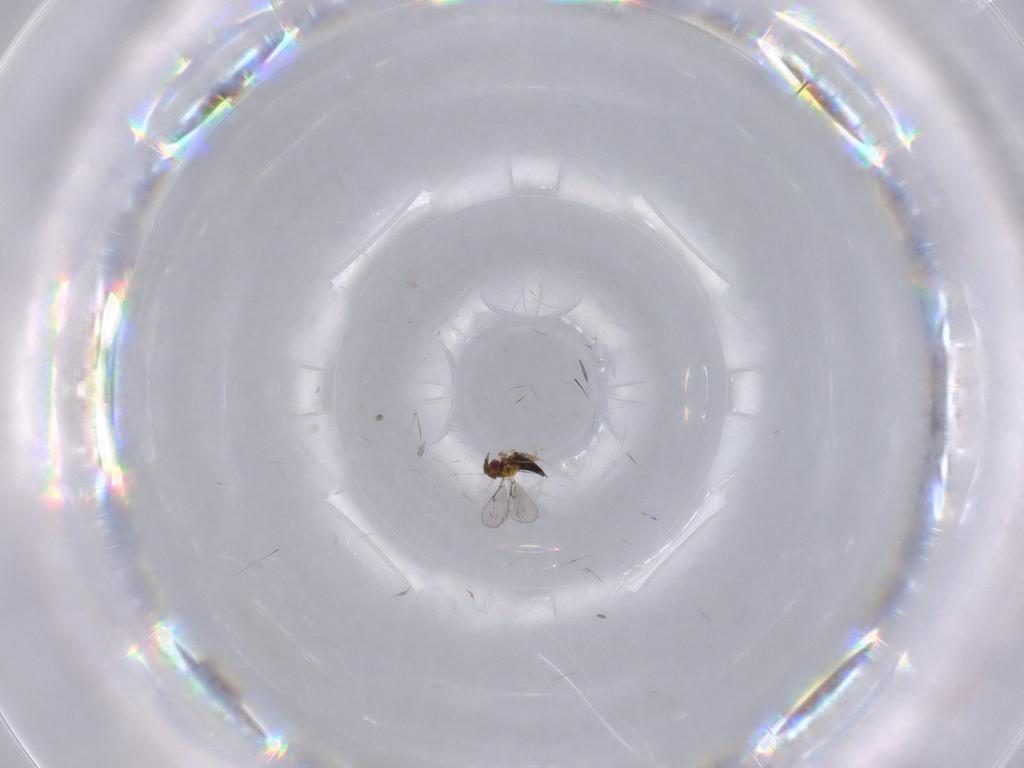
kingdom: Animalia
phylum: Arthropoda
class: Insecta
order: Hymenoptera
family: Trichogrammatidae
